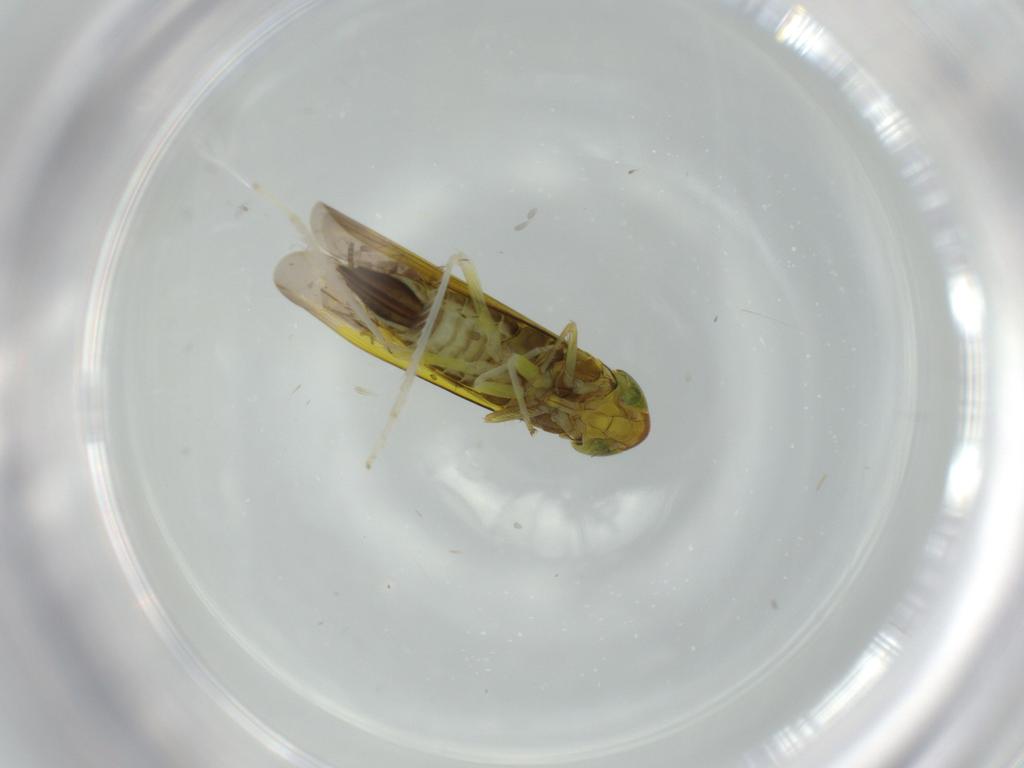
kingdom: Animalia
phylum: Arthropoda
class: Insecta
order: Hemiptera
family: Cicadellidae
